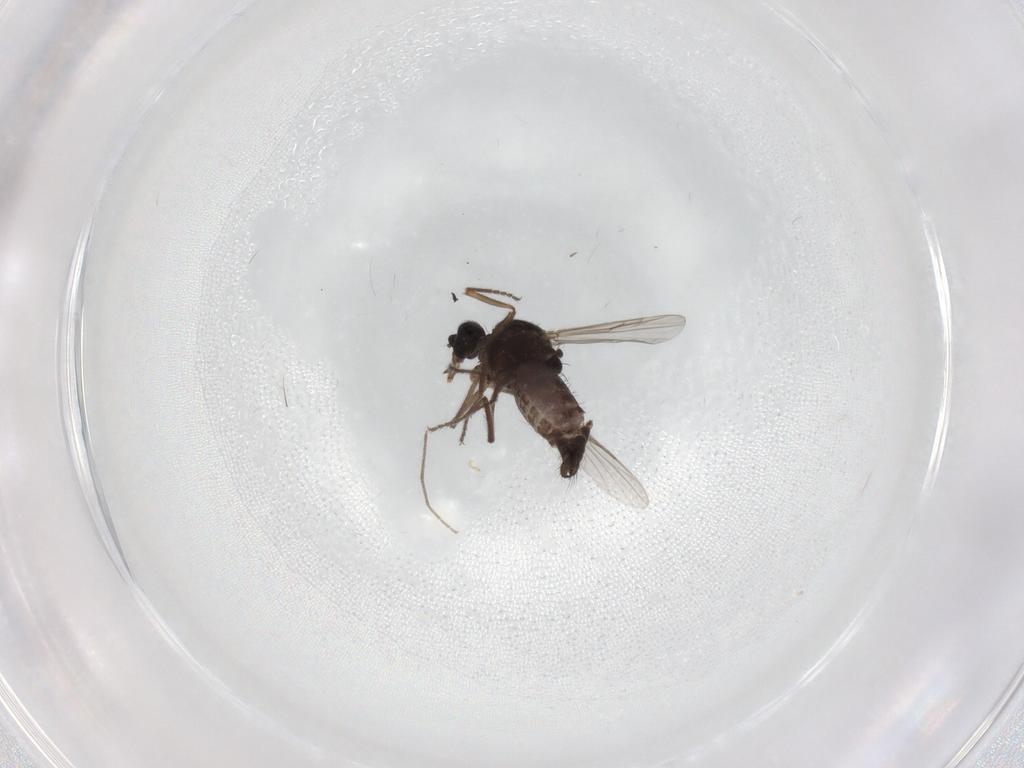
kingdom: Animalia
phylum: Arthropoda
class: Insecta
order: Diptera
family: Ceratopogonidae
